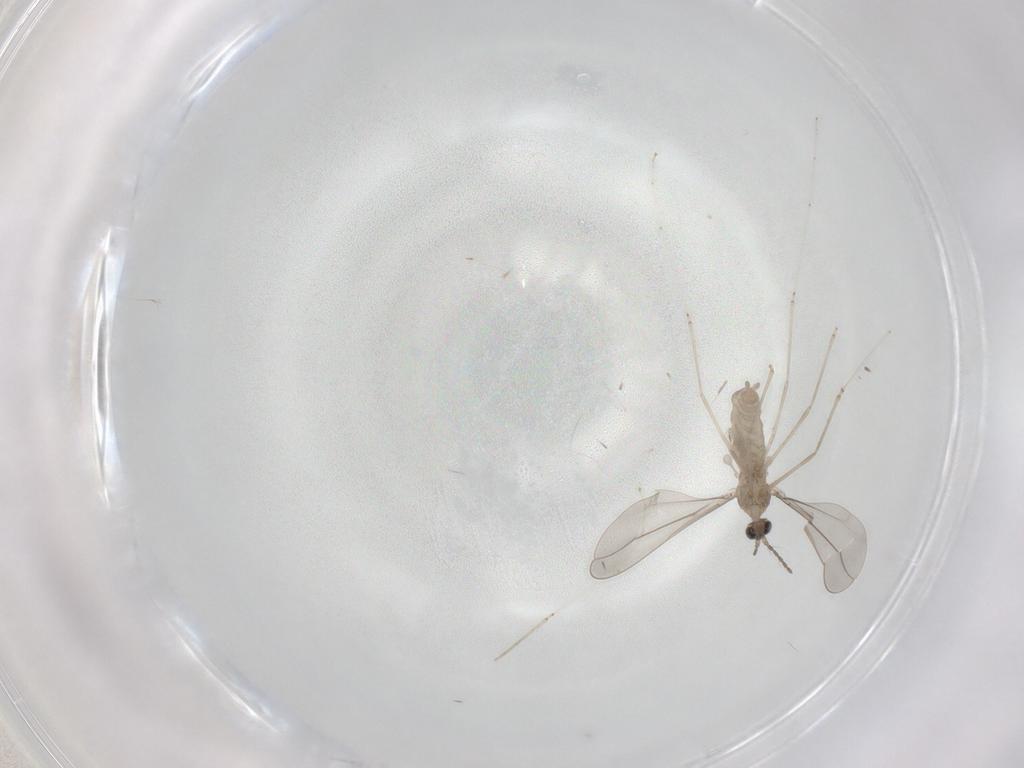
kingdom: Animalia
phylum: Arthropoda
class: Insecta
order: Diptera
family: Cecidomyiidae
